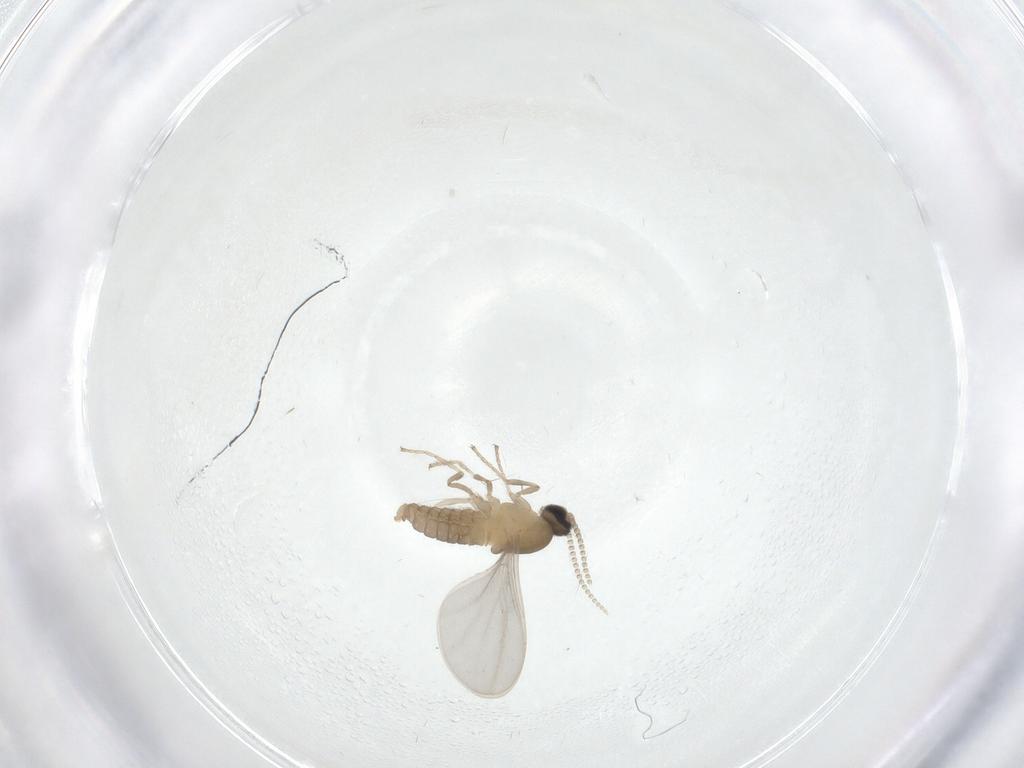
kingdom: Animalia
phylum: Arthropoda
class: Insecta
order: Diptera
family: Cecidomyiidae
